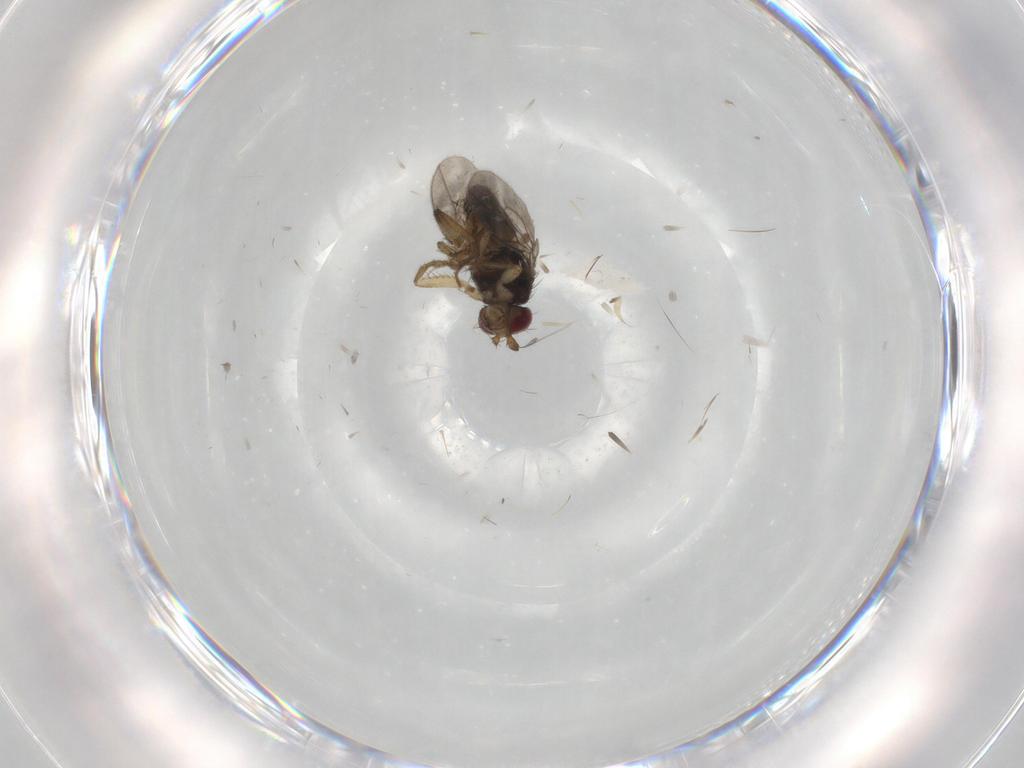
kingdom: Animalia
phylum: Arthropoda
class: Insecta
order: Diptera
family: Sphaeroceridae
